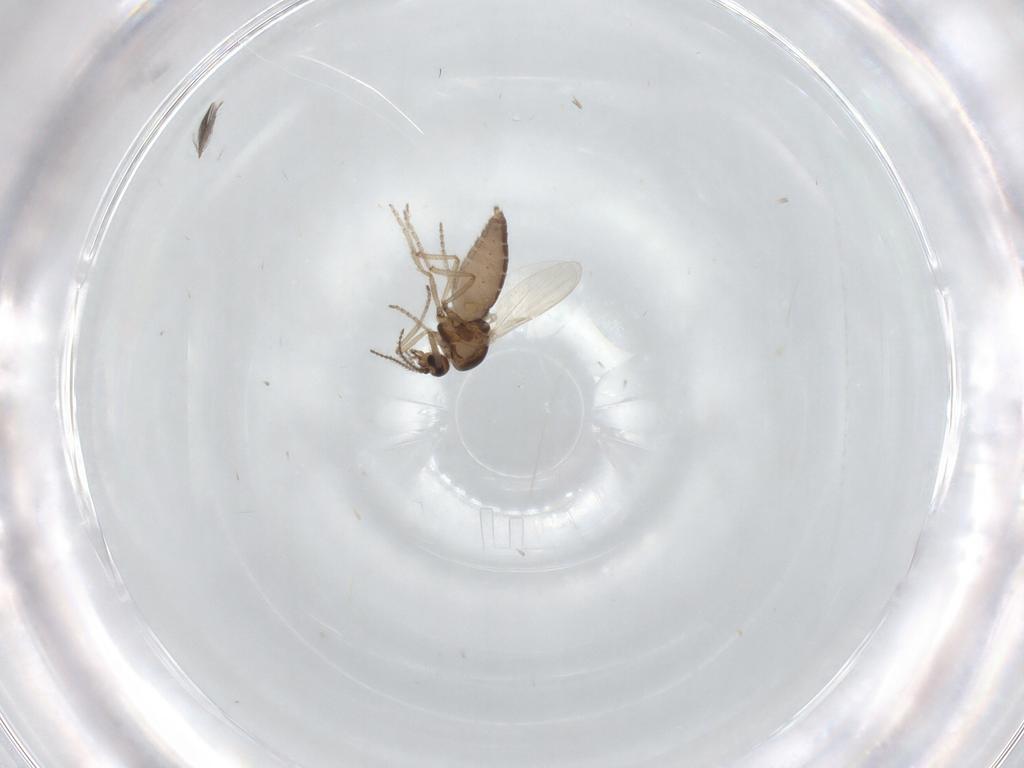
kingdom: Animalia
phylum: Arthropoda
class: Insecta
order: Diptera
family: Ceratopogonidae
